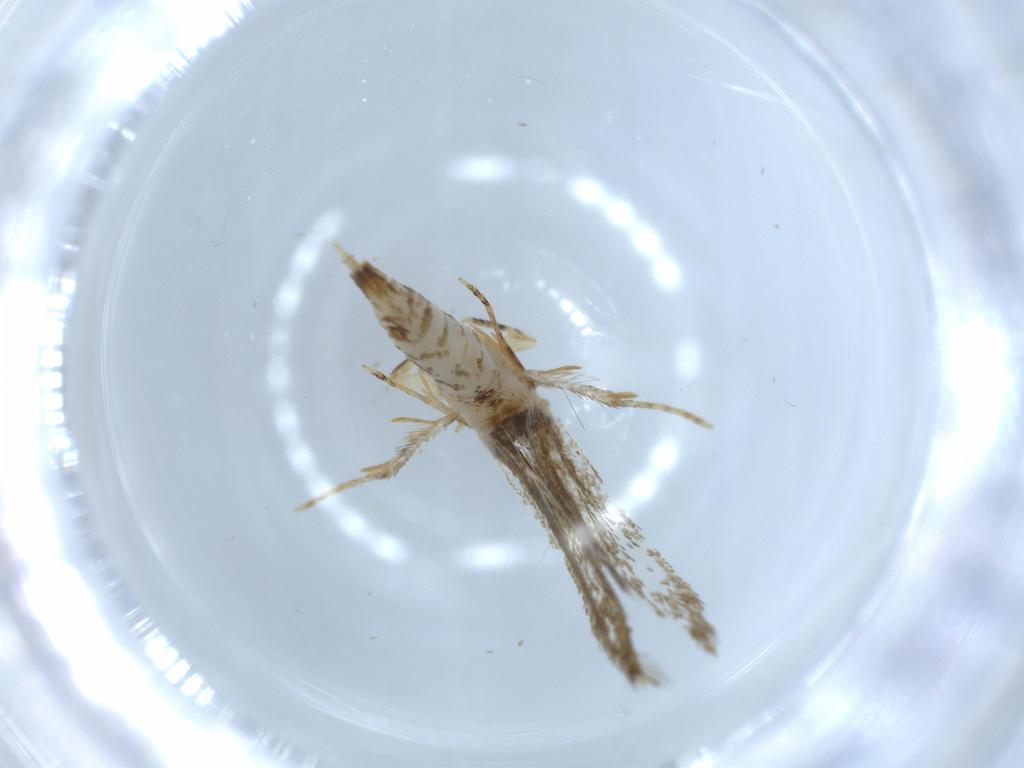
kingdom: Animalia
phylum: Arthropoda
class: Insecta
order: Lepidoptera
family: Tineidae
